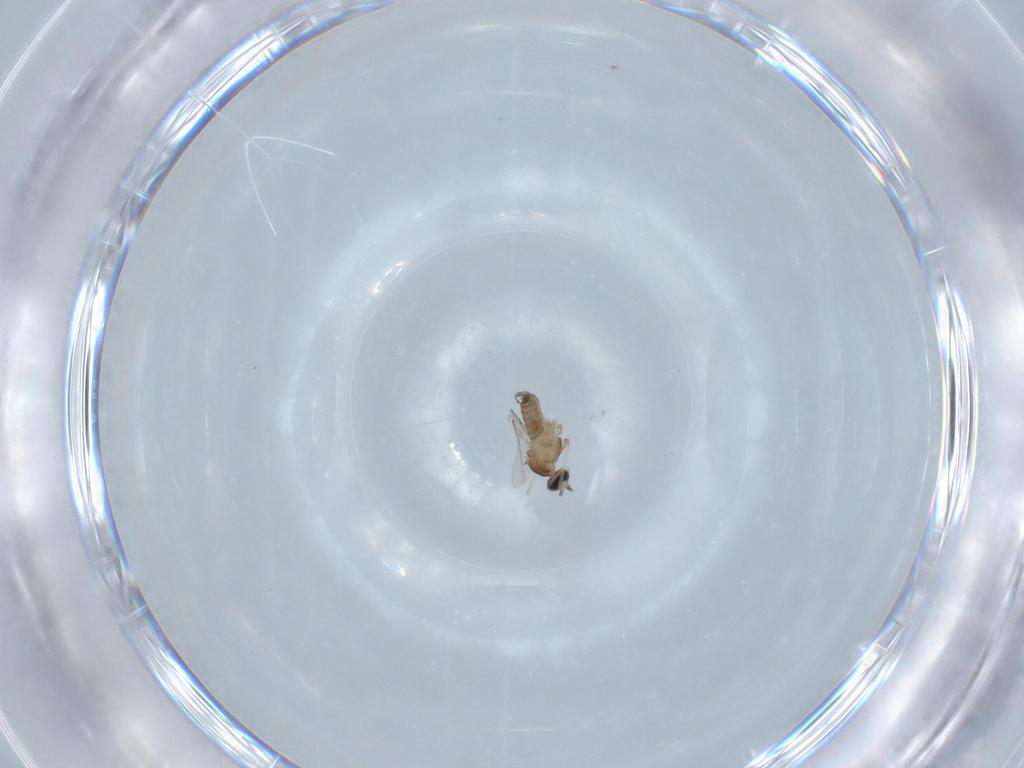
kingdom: Animalia
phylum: Arthropoda
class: Insecta
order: Diptera
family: Cecidomyiidae
